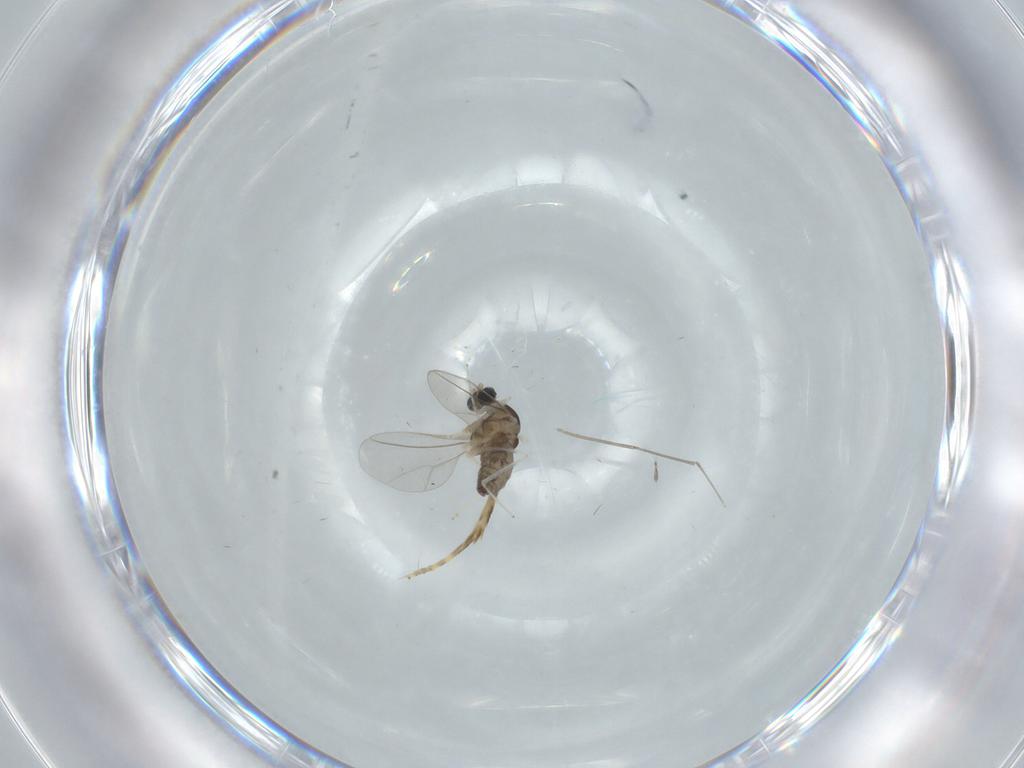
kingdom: Animalia
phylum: Arthropoda
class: Insecta
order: Diptera
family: Cecidomyiidae
